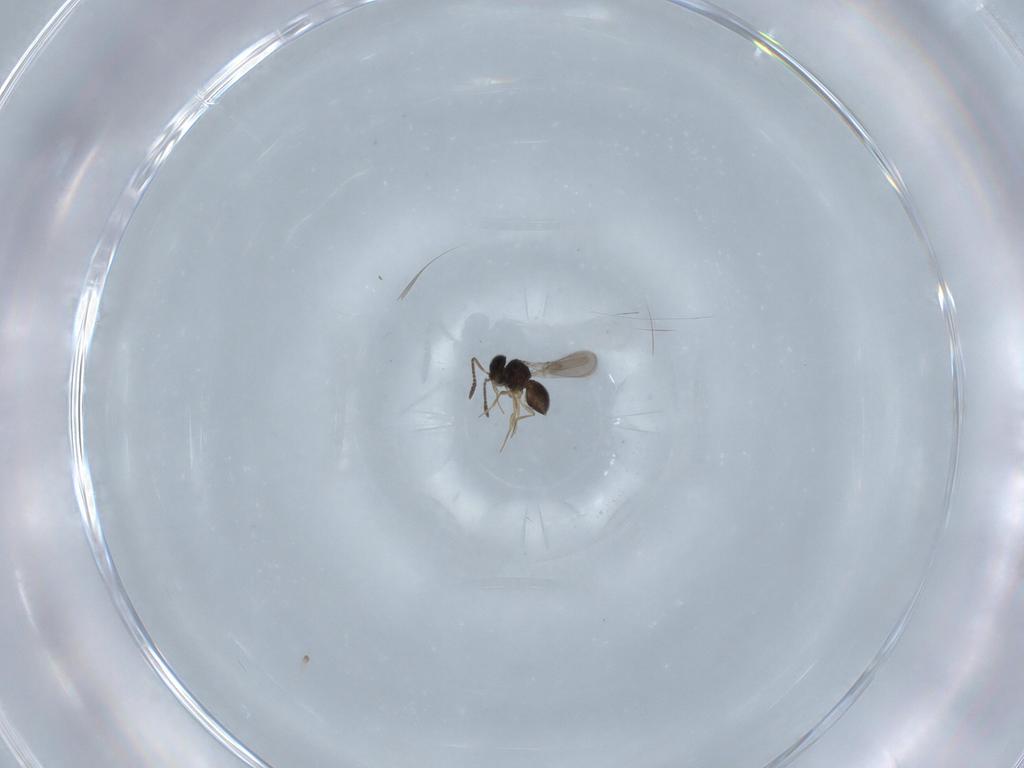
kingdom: Animalia
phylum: Arthropoda
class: Insecta
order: Hymenoptera
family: Scelionidae
